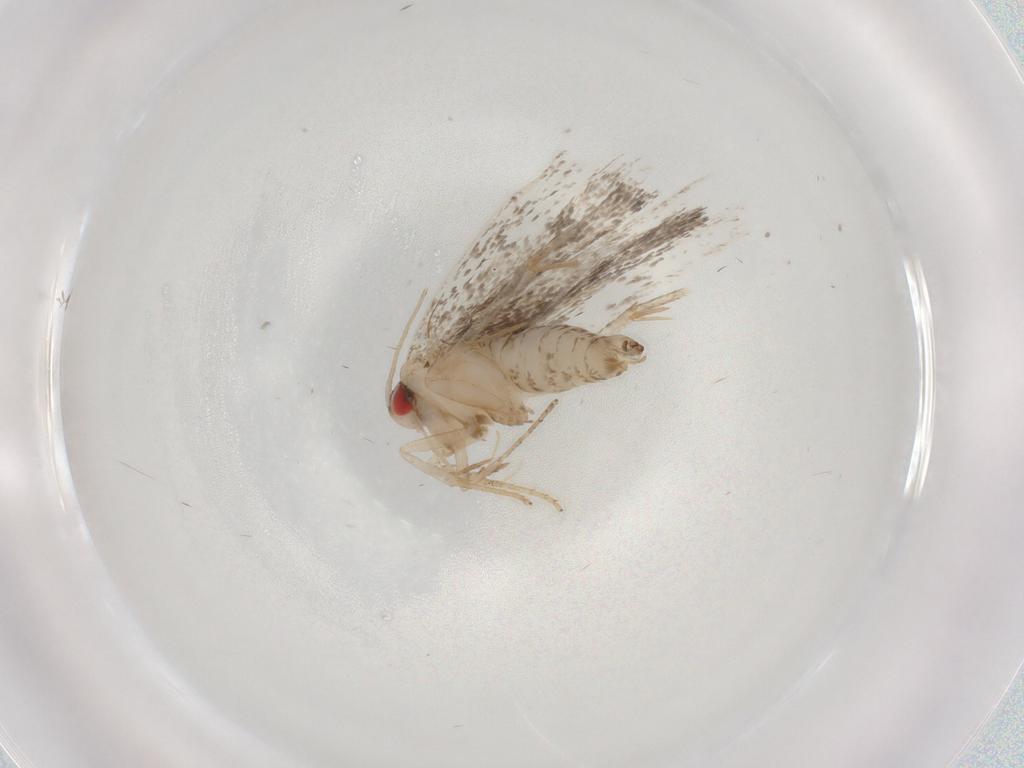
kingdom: Animalia
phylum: Arthropoda
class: Insecta
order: Lepidoptera
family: Gelechiidae
